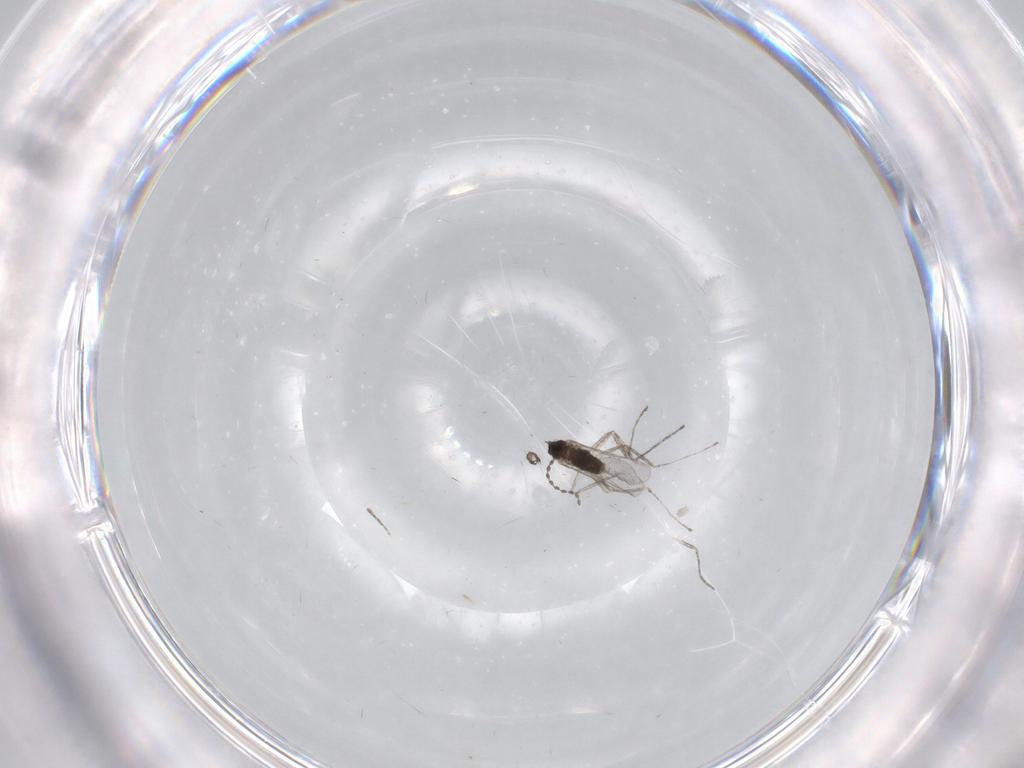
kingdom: Animalia
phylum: Arthropoda
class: Insecta
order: Diptera
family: Cecidomyiidae
